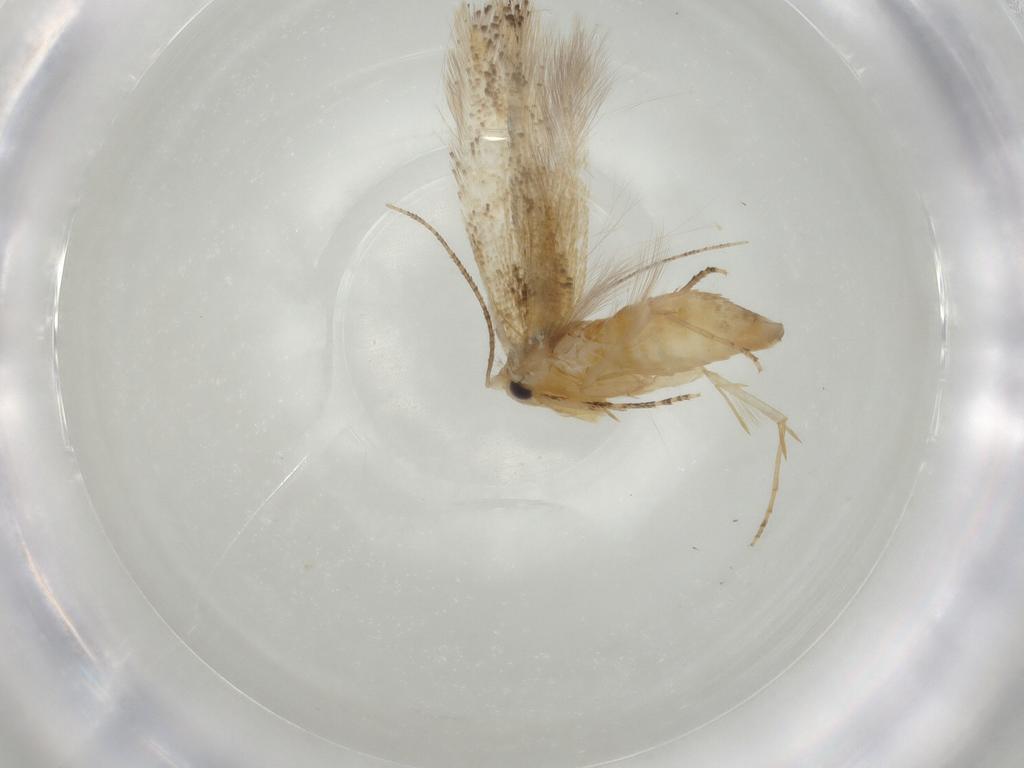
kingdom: Animalia
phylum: Arthropoda
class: Insecta
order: Lepidoptera
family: Bucculatricidae
